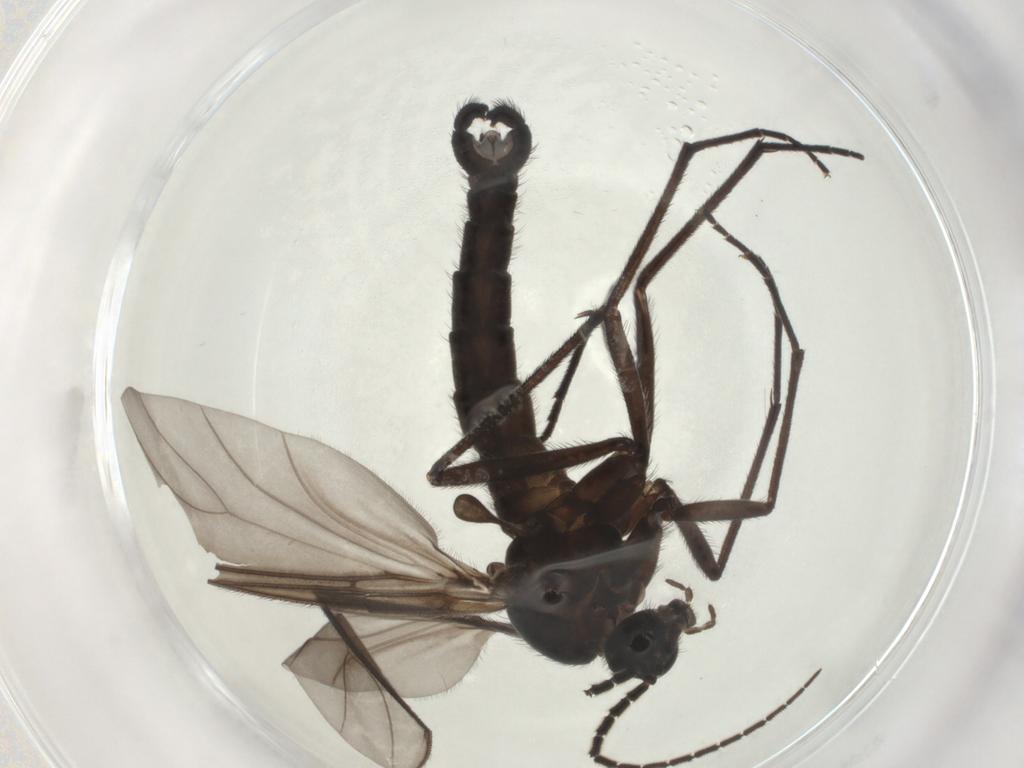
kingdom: Animalia
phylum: Arthropoda
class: Insecta
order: Diptera
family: Sciaridae
